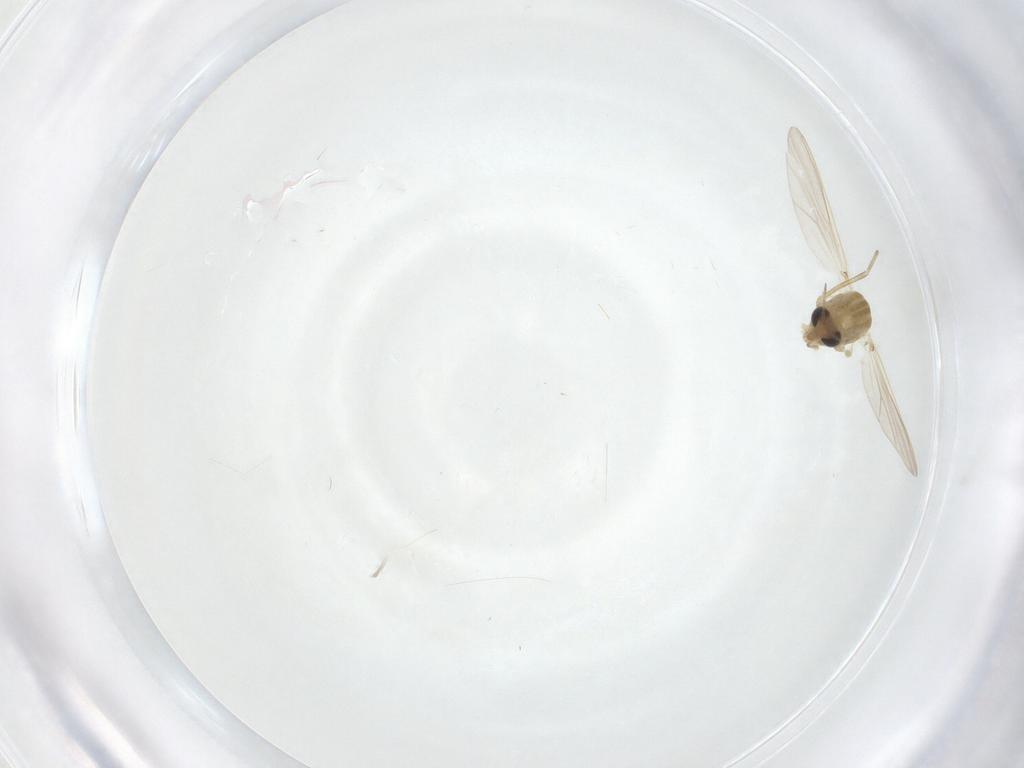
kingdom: Animalia
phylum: Arthropoda
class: Insecta
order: Diptera
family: Chironomidae
